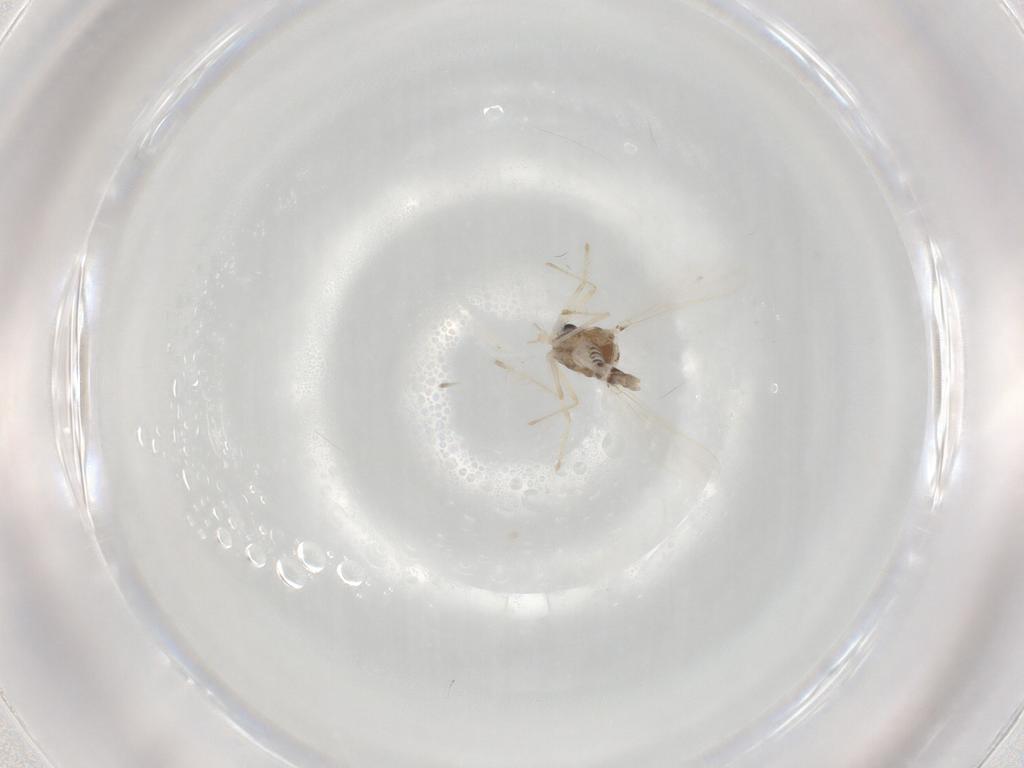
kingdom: Animalia
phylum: Arthropoda
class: Insecta
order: Diptera
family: Chironomidae
